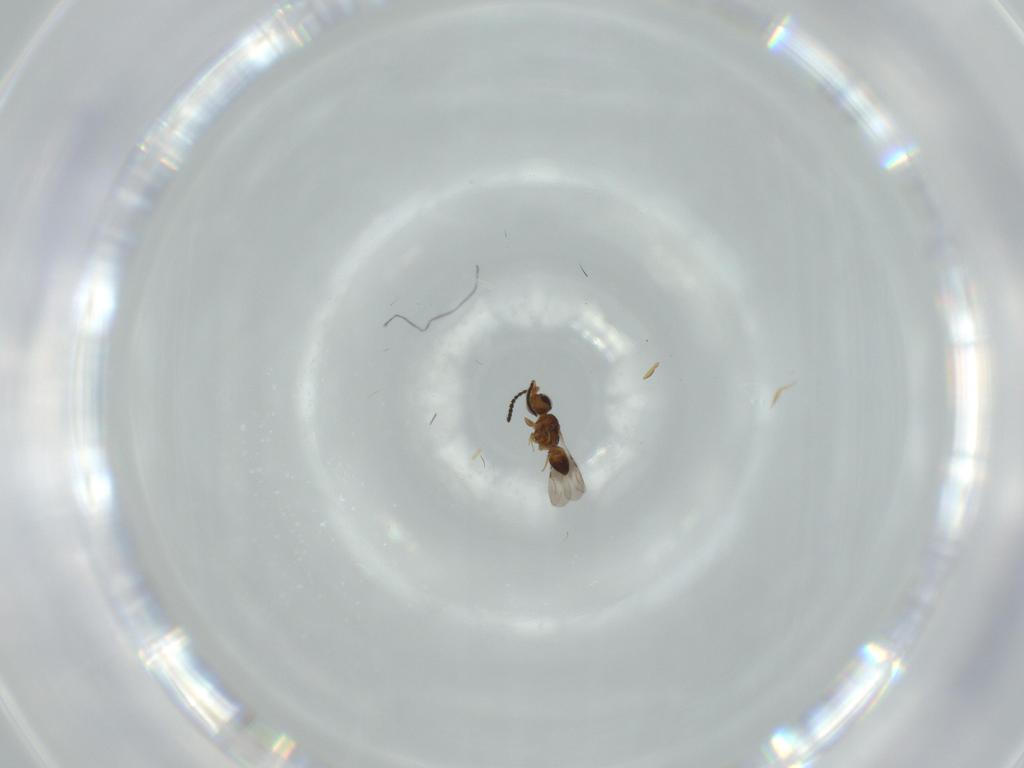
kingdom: Animalia
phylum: Arthropoda
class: Insecta
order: Hymenoptera
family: Ceraphronidae
